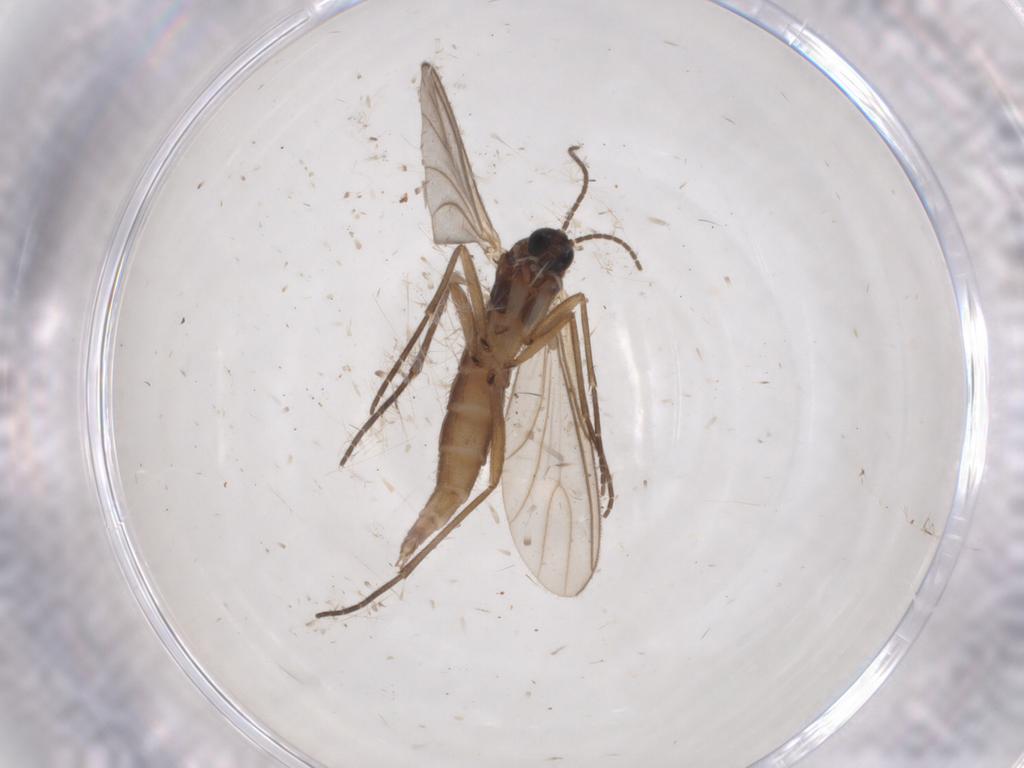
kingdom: Animalia
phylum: Arthropoda
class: Insecta
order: Diptera
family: Sciaridae
